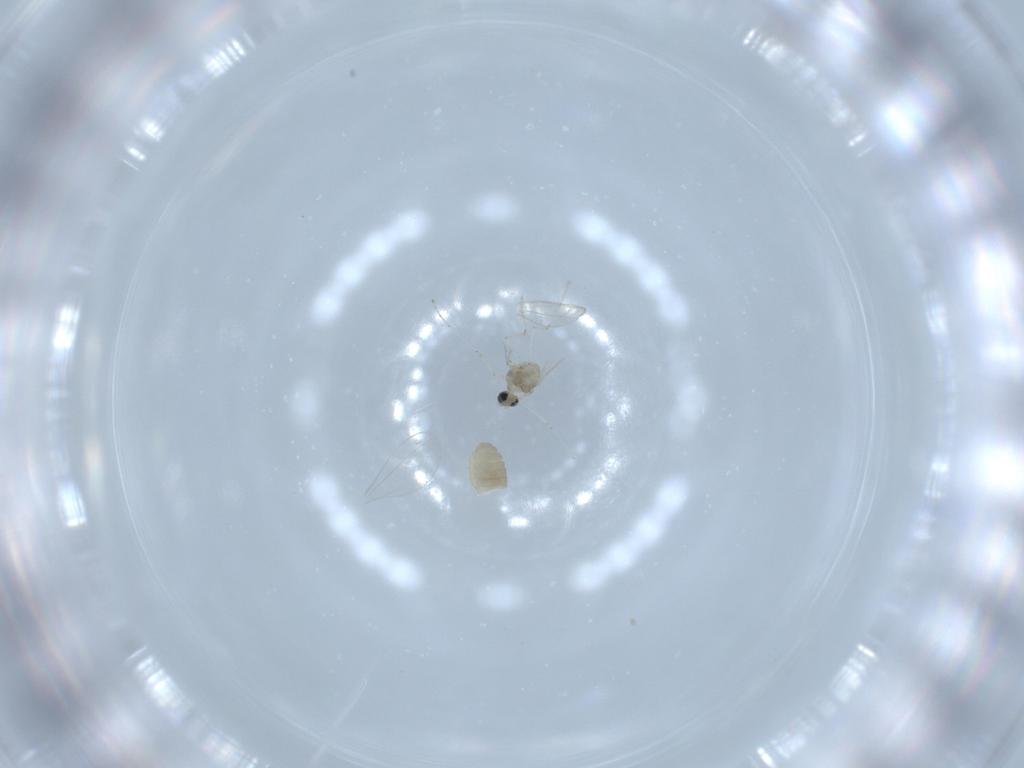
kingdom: Animalia
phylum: Arthropoda
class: Insecta
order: Diptera
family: Cecidomyiidae
